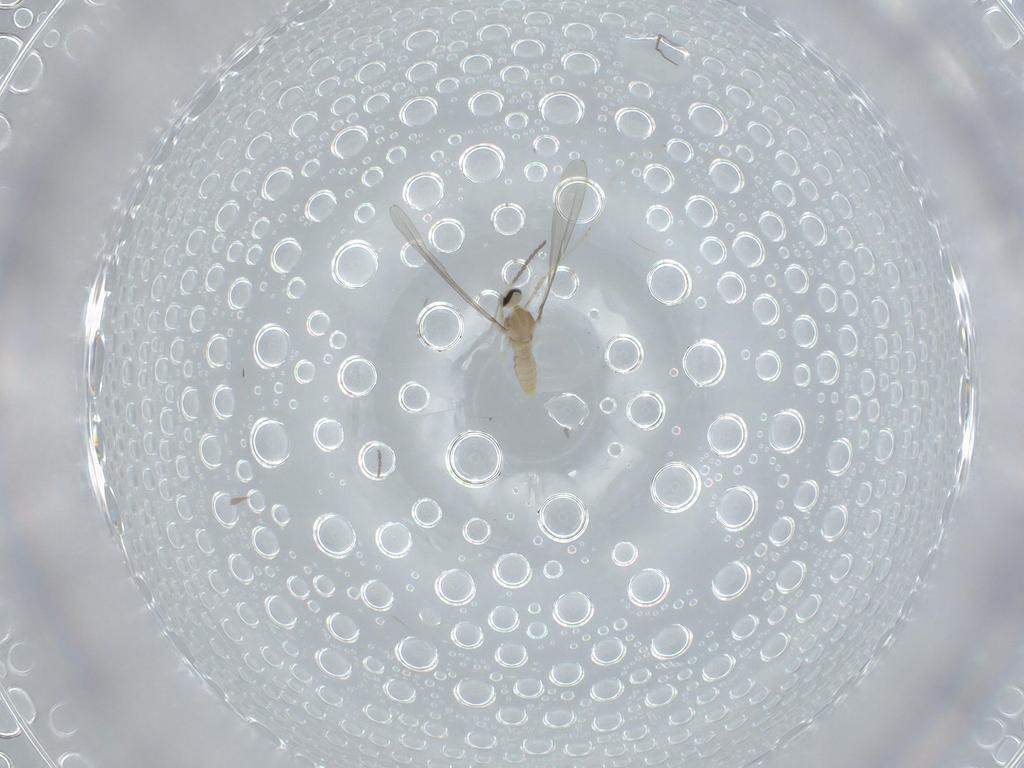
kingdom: Animalia
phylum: Arthropoda
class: Insecta
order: Diptera
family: Cecidomyiidae
